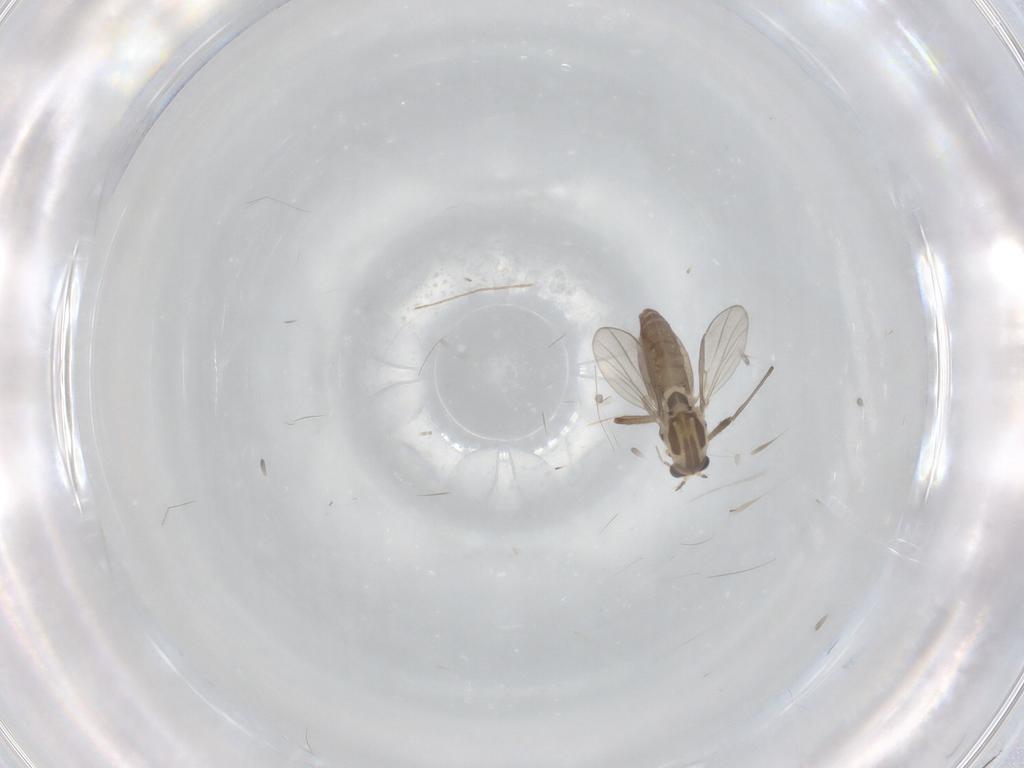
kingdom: Animalia
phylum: Arthropoda
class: Insecta
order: Diptera
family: Chironomidae
